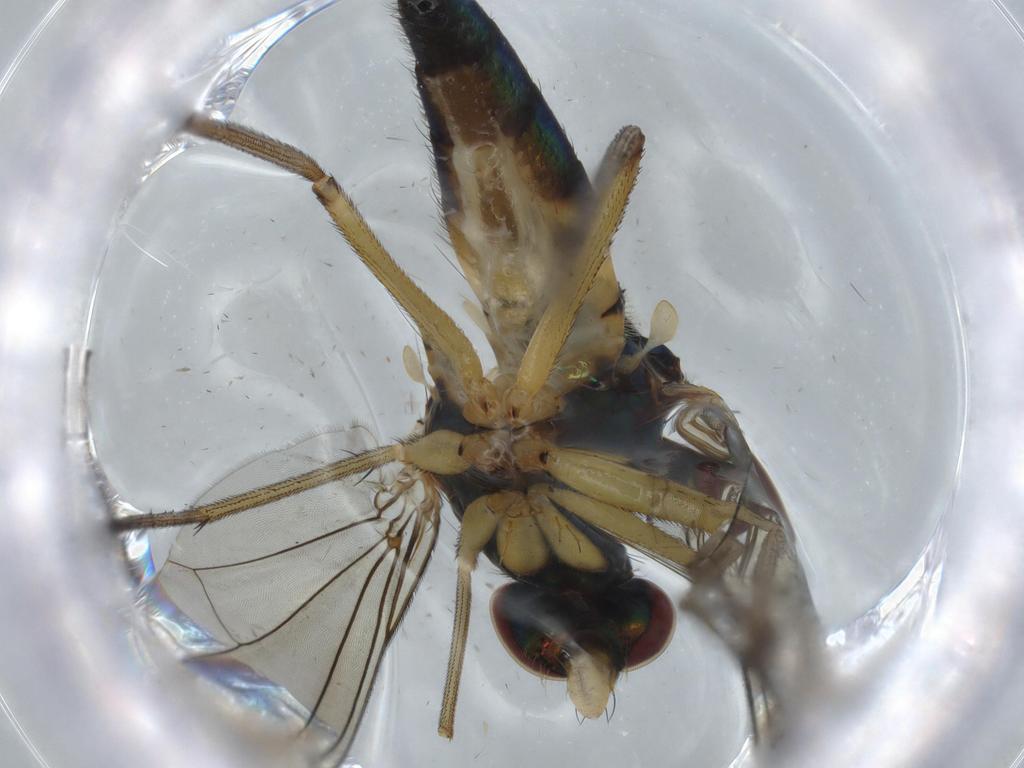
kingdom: Animalia
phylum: Arthropoda
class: Insecta
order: Diptera
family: Dolichopodidae
